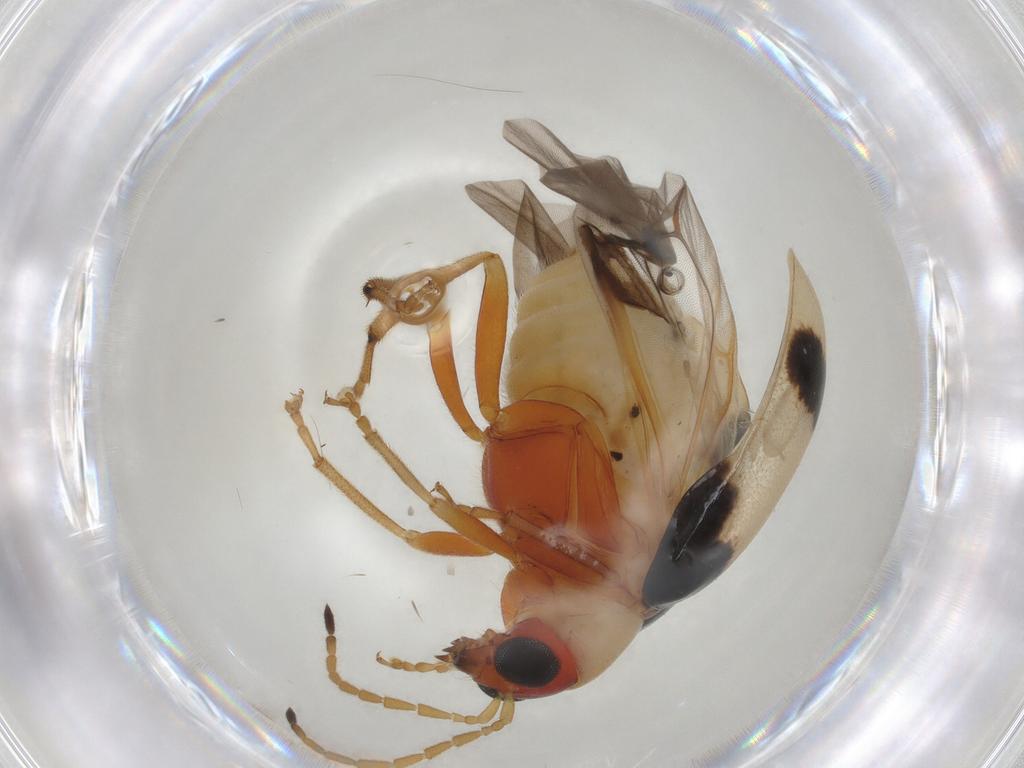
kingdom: Animalia
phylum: Arthropoda
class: Insecta
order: Coleoptera
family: Chrysomelidae
